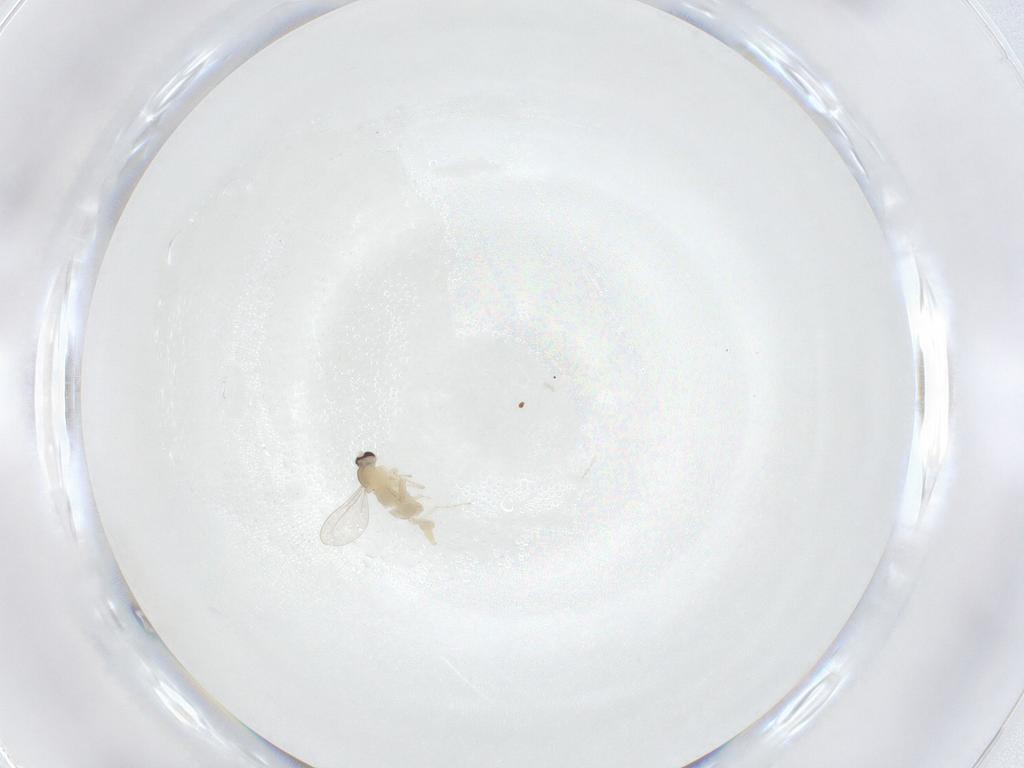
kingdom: Animalia
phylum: Arthropoda
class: Insecta
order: Diptera
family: Cecidomyiidae
